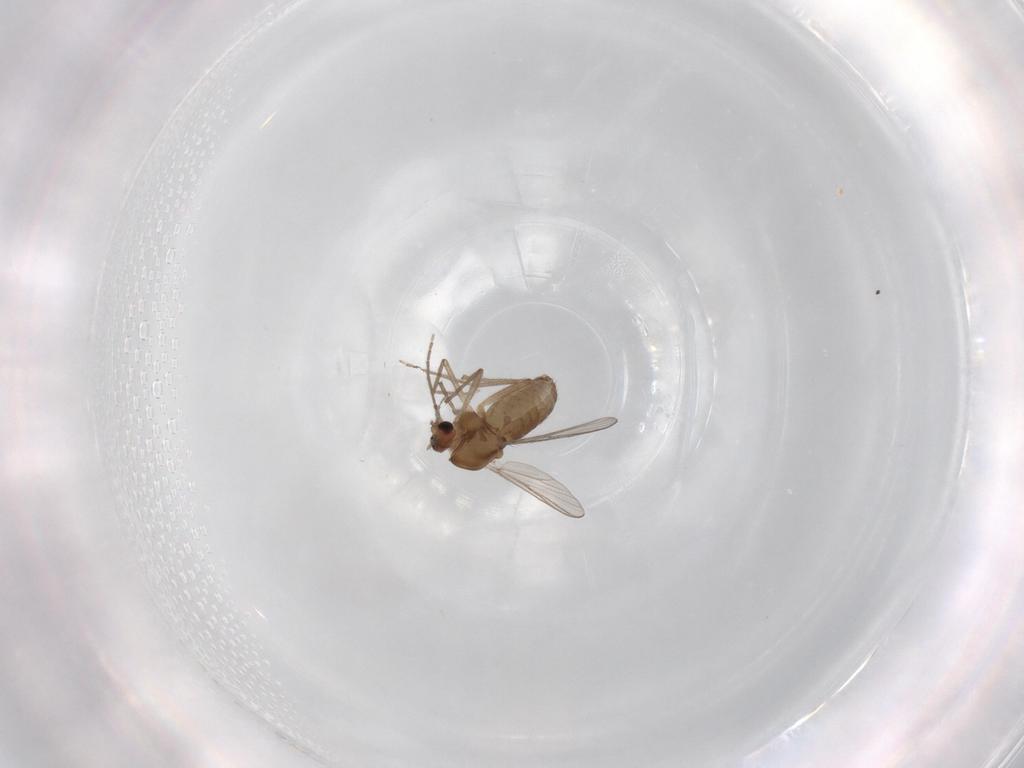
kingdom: Animalia
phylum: Arthropoda
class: Insecta
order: Diptera
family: Chironomidae
